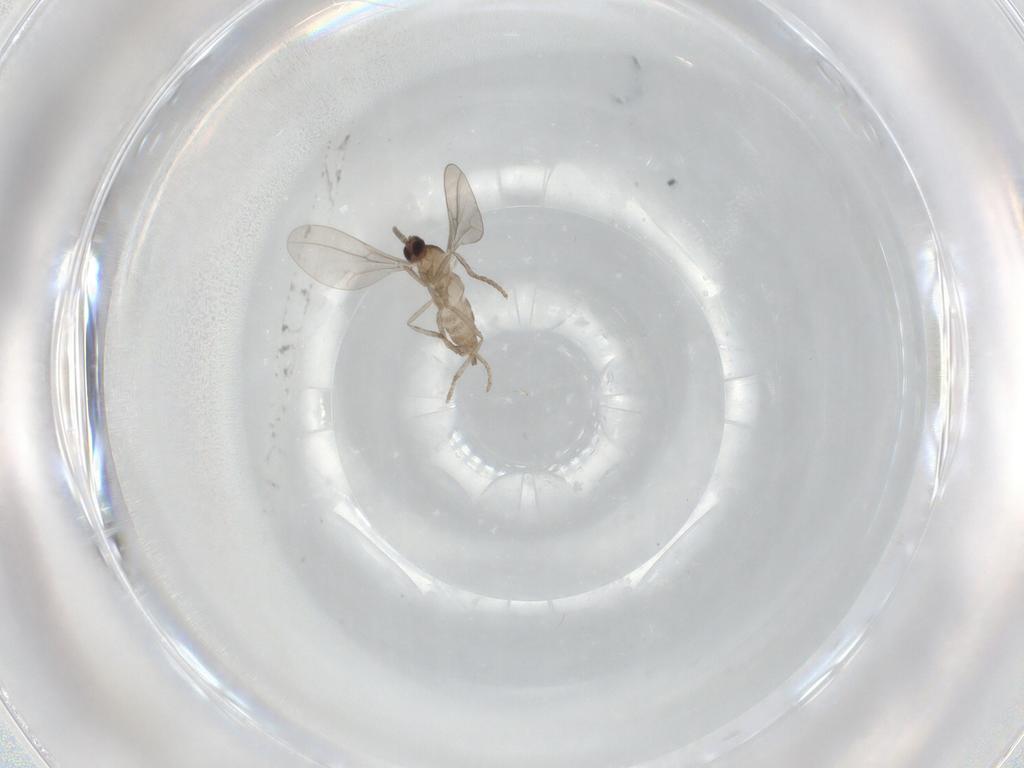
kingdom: Animalia
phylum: Arthropoda
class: Insecta
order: Diptera
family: Cecidomyiidae
